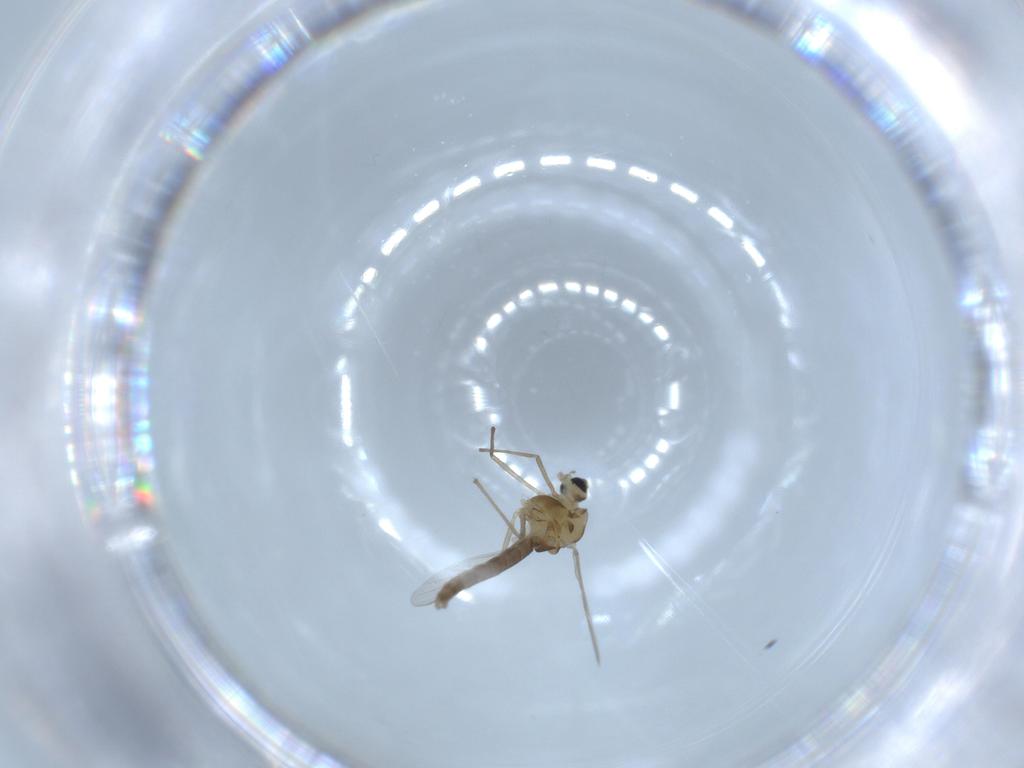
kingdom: Animalia
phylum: Arthropoda
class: Insecta
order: Diptera
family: Chironomidae
